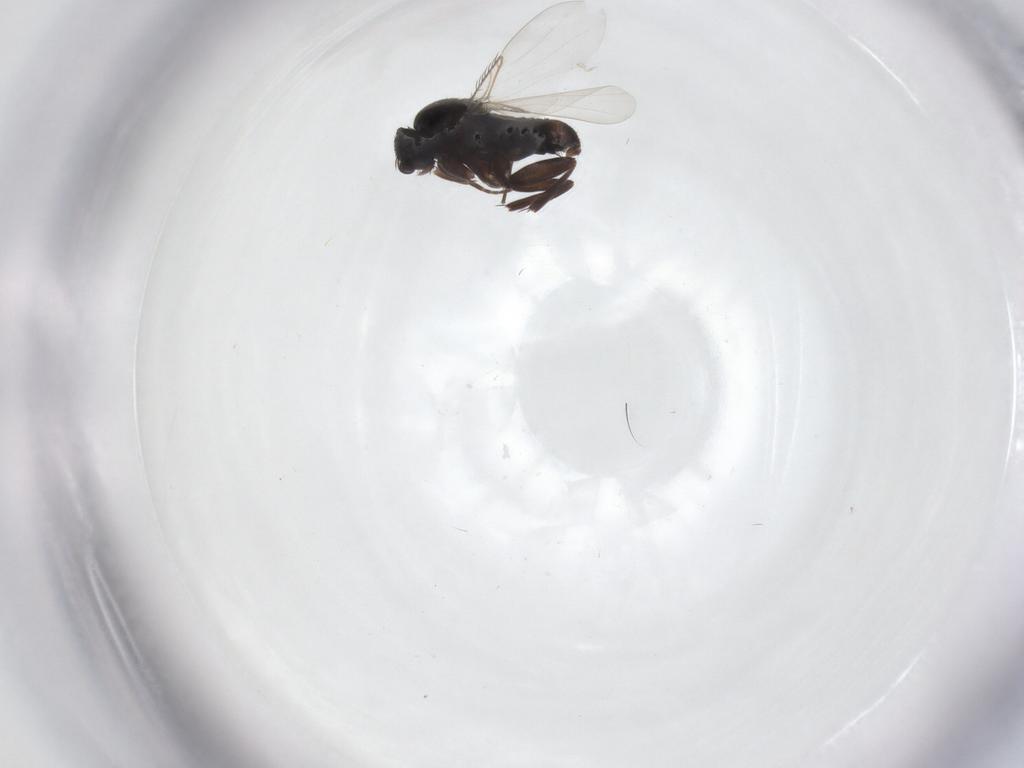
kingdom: Animalia
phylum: Arthropoda
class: Insecta
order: Diptera
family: Phoridae
